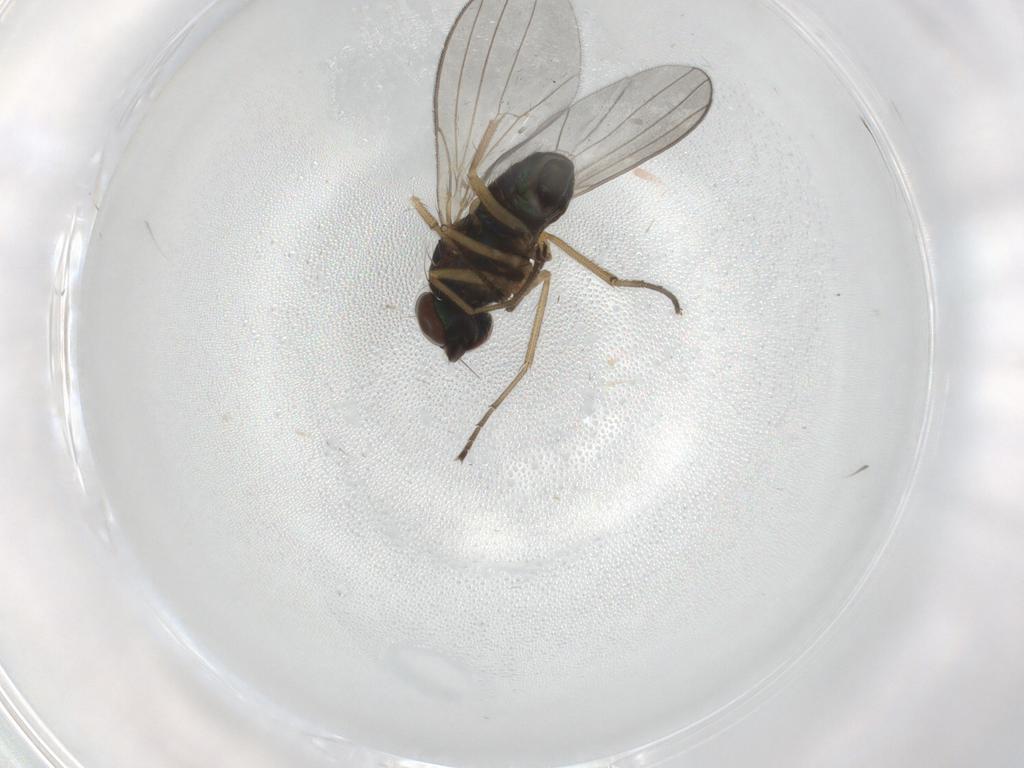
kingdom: Animalia
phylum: Arthropoda
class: Insecta
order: Diptera
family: Dolichopodidae
